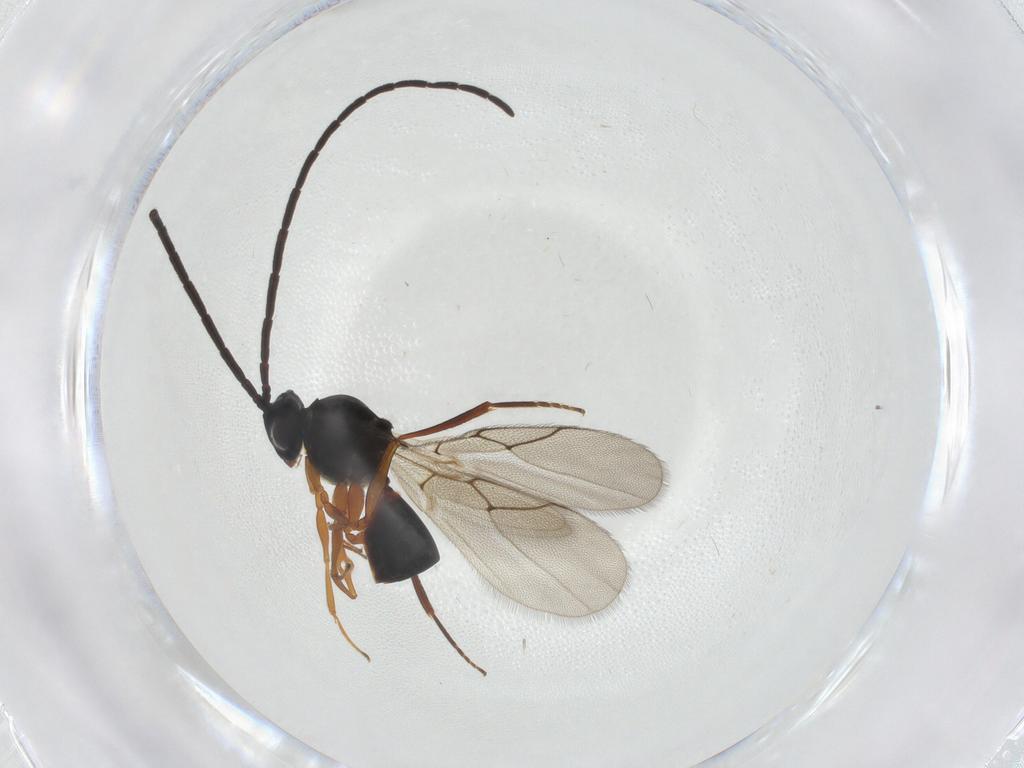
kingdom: Animalia
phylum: Arthropoda
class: Insecta
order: Hymenoptera
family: Figitidae
